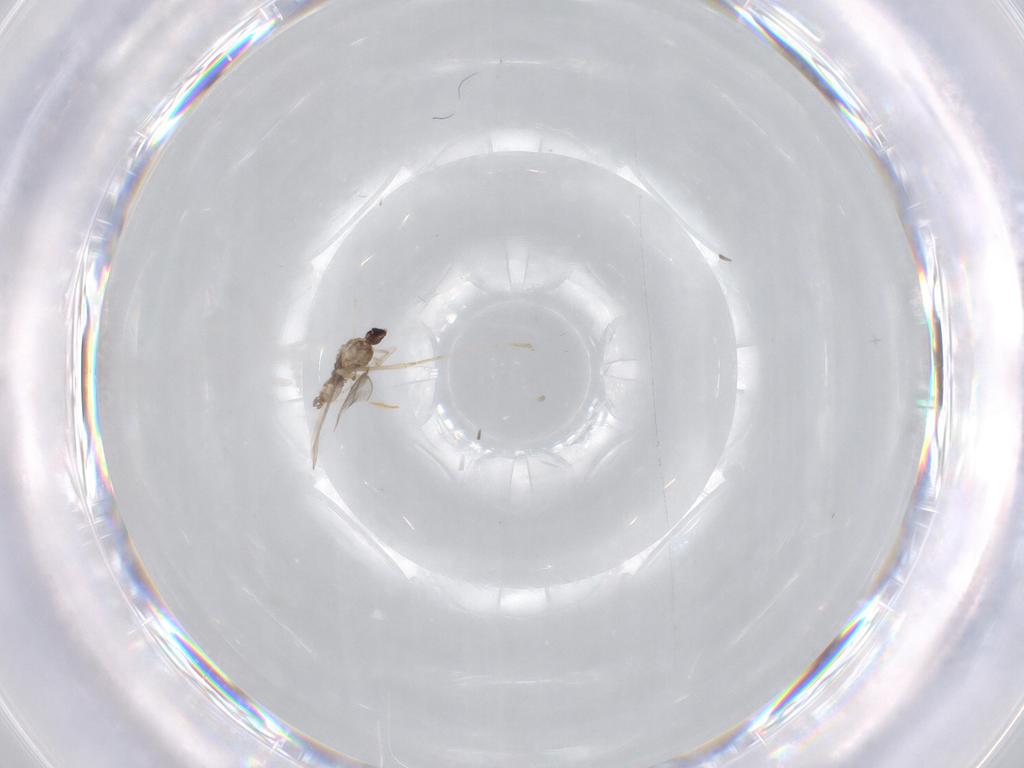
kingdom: Animalia
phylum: Arthropoda
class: Insecta
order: Diptera
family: Cecidomyiidae
